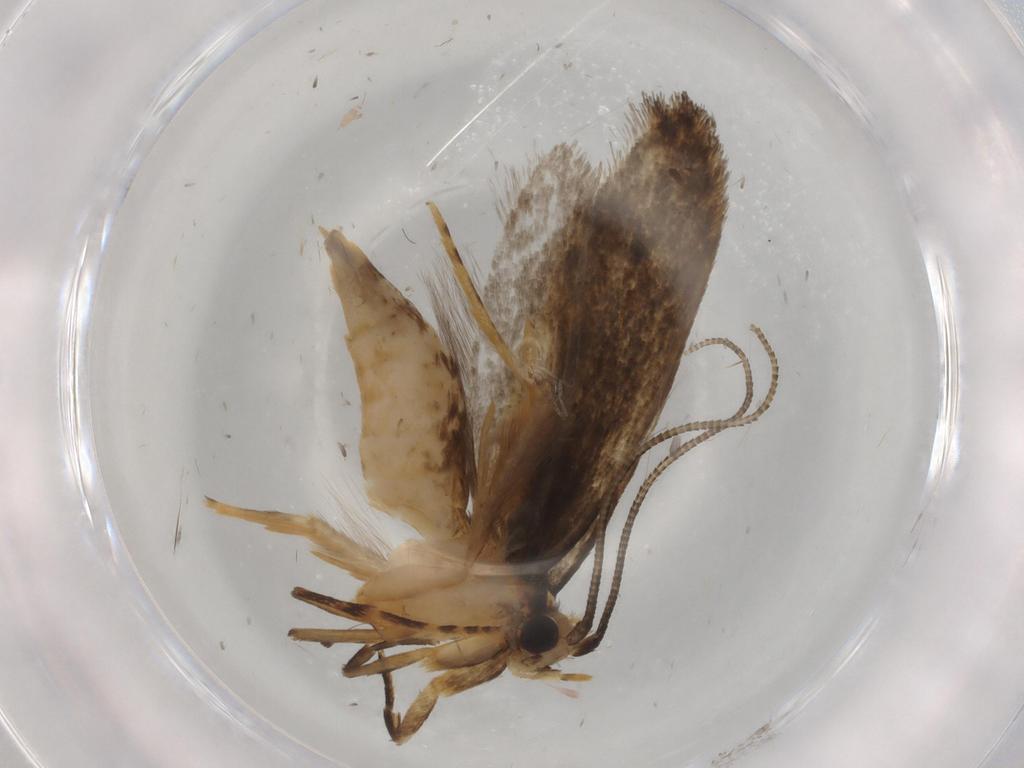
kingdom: Animalia
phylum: Arthropoda
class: Insecta
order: Lepidoptera
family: Tineidae
